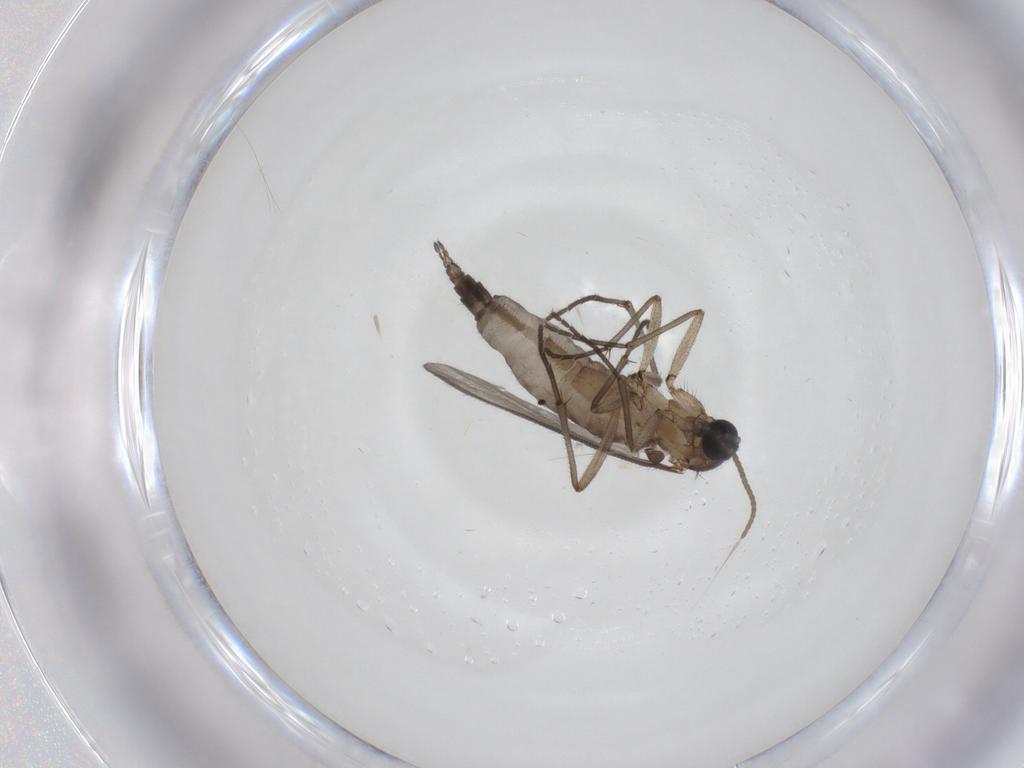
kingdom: Animalia
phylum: Arthropoda
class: Insecta
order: Diptera
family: Sciaridae
